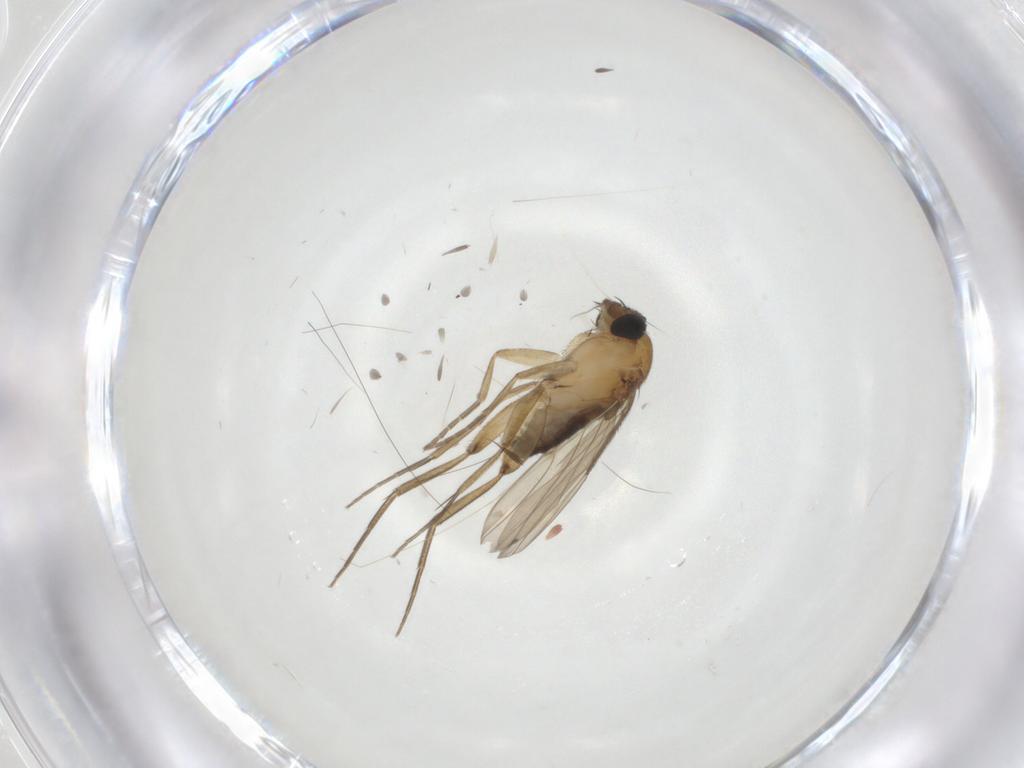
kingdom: Animalia
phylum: Arthropoda
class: Insecta
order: Diptera
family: Phoridae
